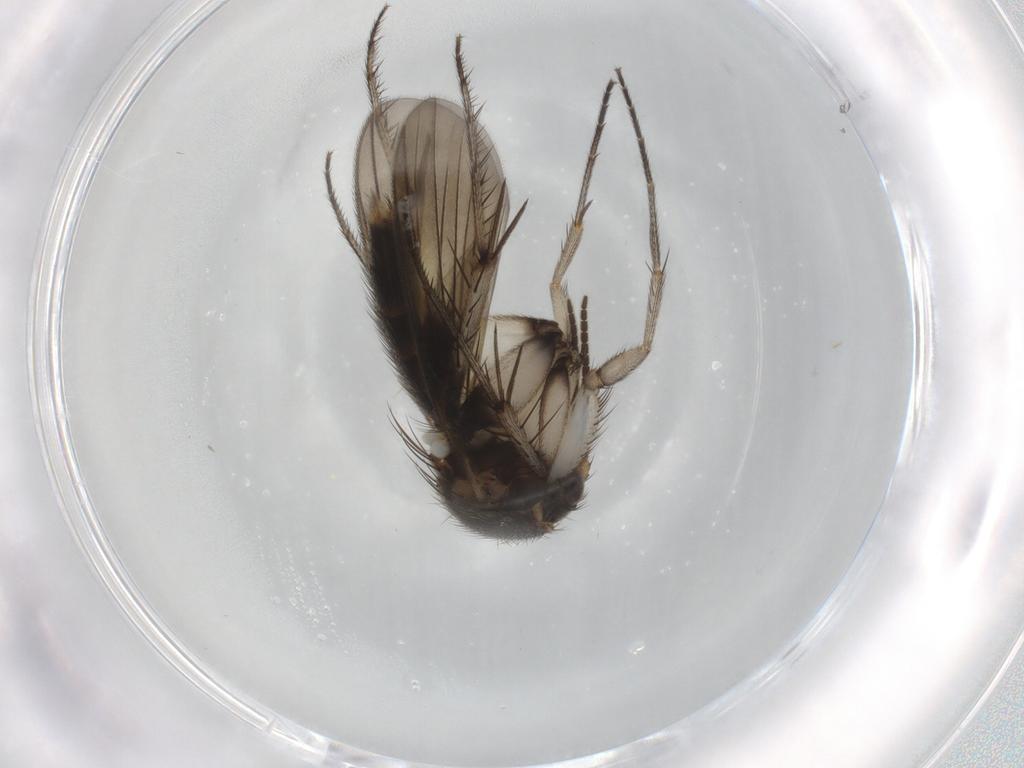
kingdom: Animalia
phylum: Arthropoda
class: Insecta
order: Diptera
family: Mycetophilidae
